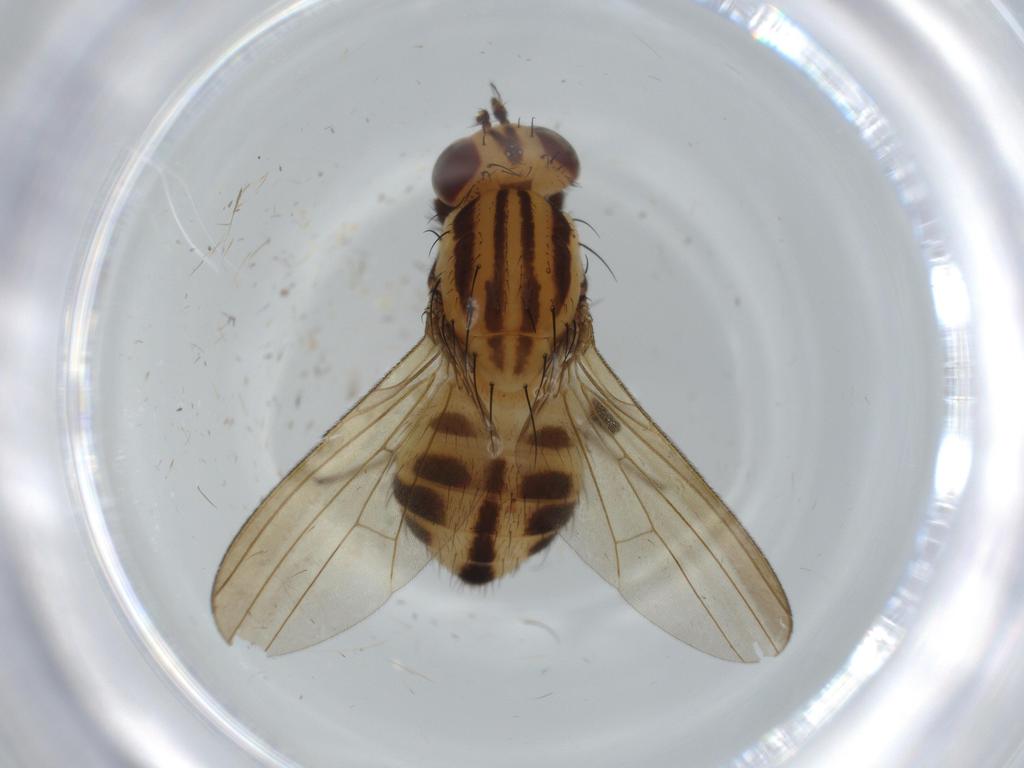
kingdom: Animalia
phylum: Arthropoda
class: Insecta
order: Diptera
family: Lauxaniidae
